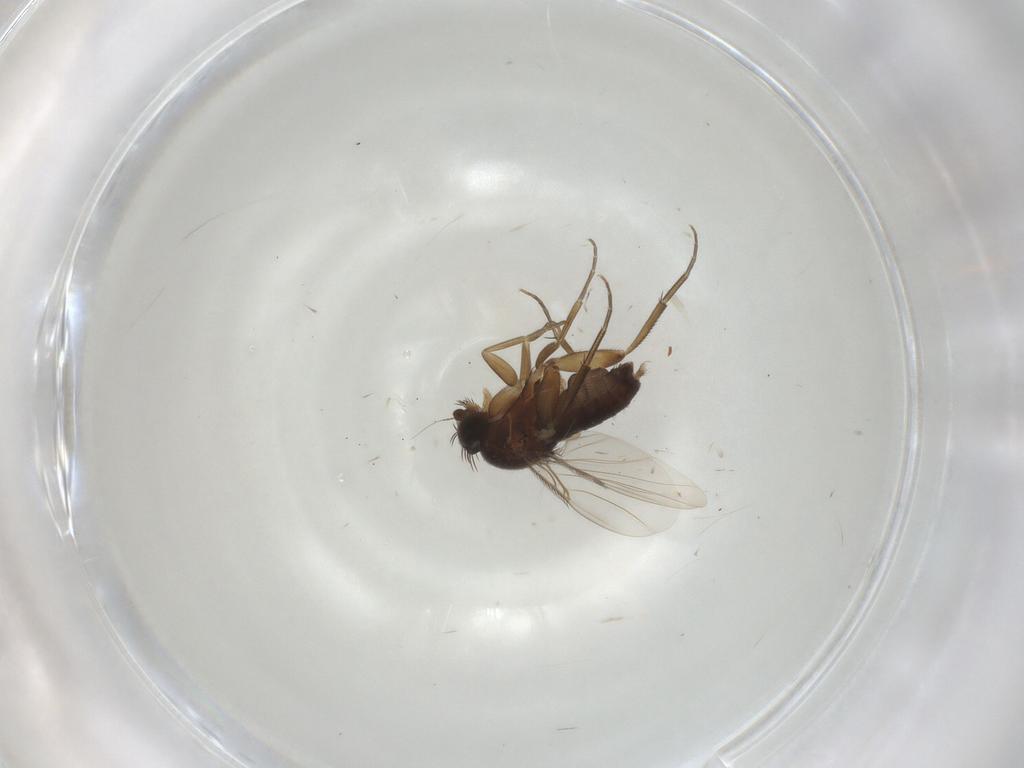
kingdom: Animalia
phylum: Arthropoda
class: Insecta
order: Diptera
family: Phoridae
